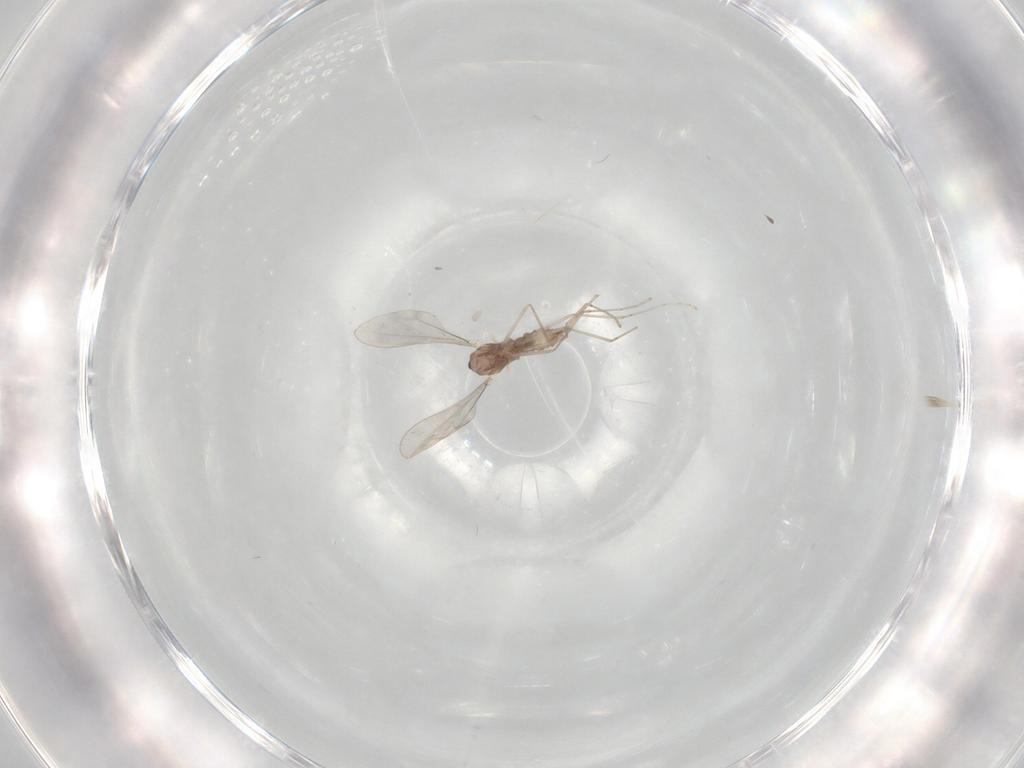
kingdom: Animalia
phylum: Arthropoda
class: Insecta
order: Diptera
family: Cecidomyiidae
